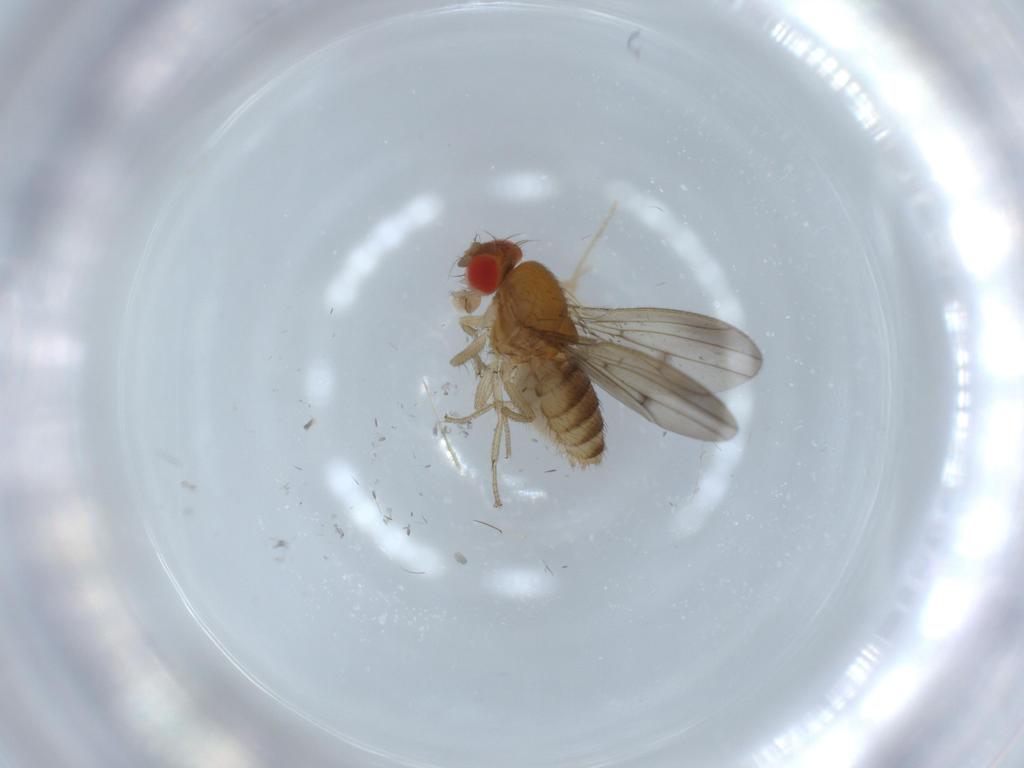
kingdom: Animalia
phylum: Arthropoda
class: Insecta
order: Diptera
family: Drosophilidae
